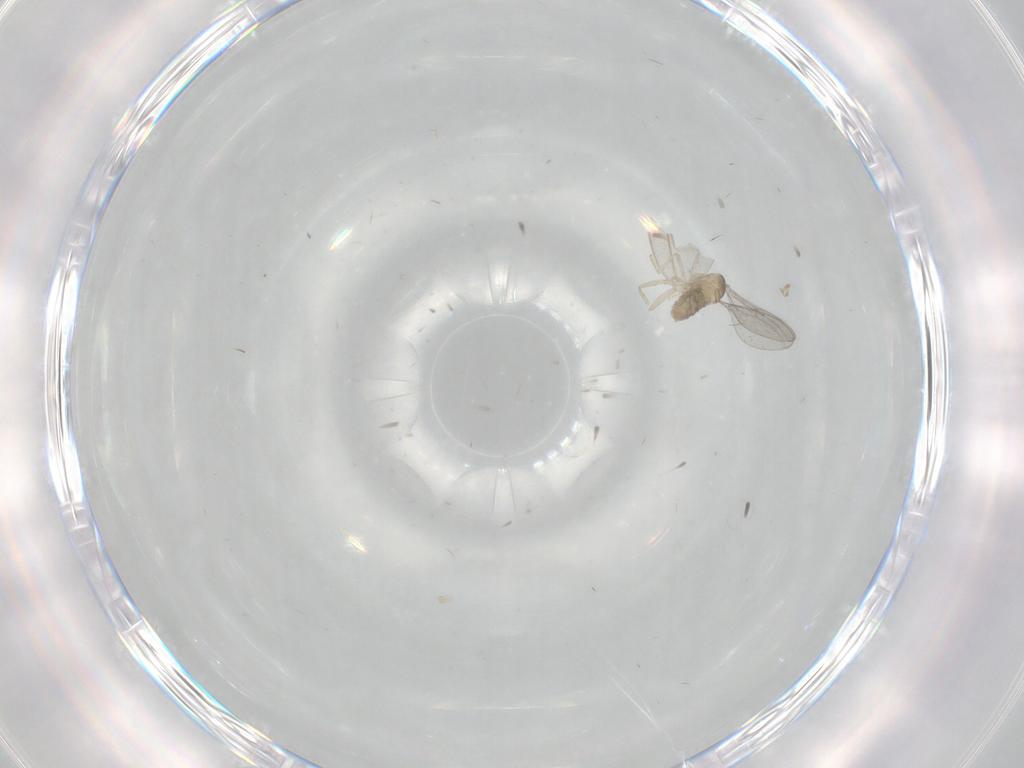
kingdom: Animalia
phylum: Arthropoda
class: Insecta
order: Diptera
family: Cecidomyiidae
